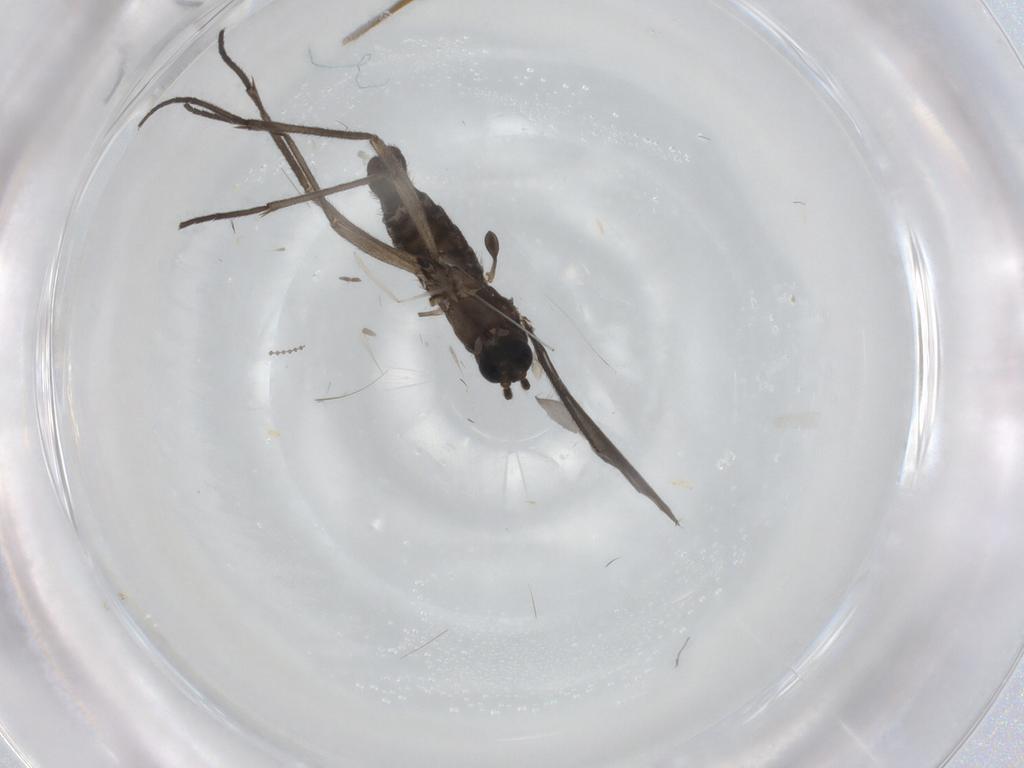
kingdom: Animalia
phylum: Arthropoda
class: Insecta
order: Diptera
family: Sciaridae
